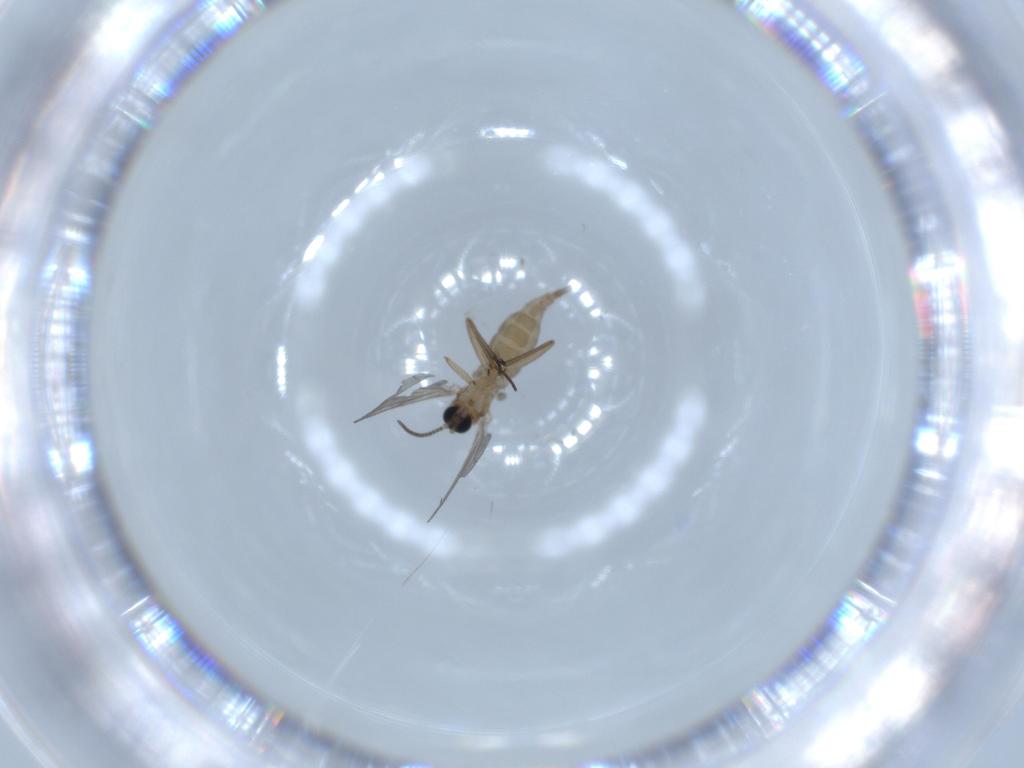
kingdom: Animalia
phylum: Arthropoda
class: Insecta
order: Diptera
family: Sciaridae
